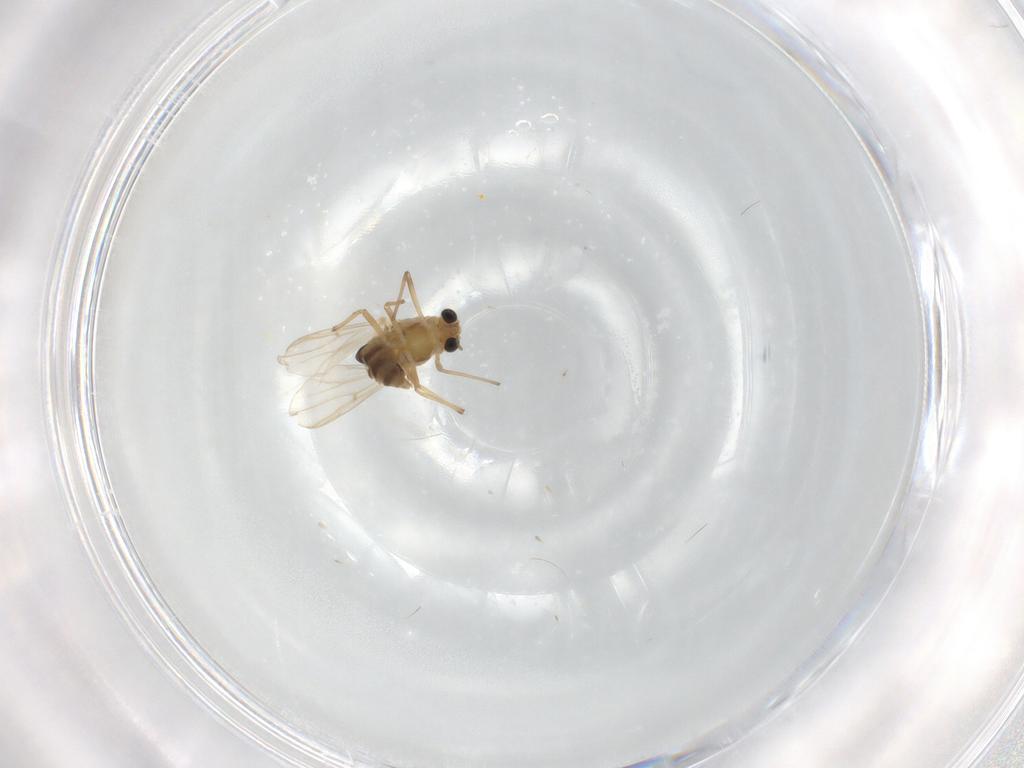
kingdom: Animalia
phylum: Arthropoda
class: Insecta
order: Diptera
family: Chironomidae
